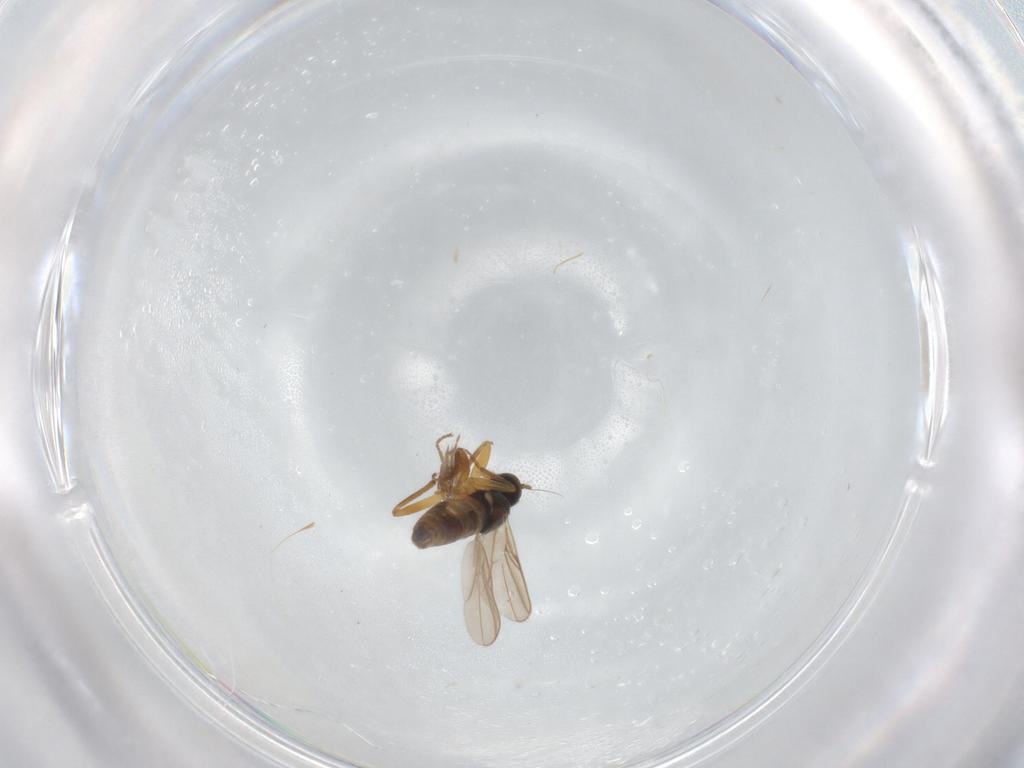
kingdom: Animalia
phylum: Arthropoda
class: Insecta
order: Diptera
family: Hybotidae
